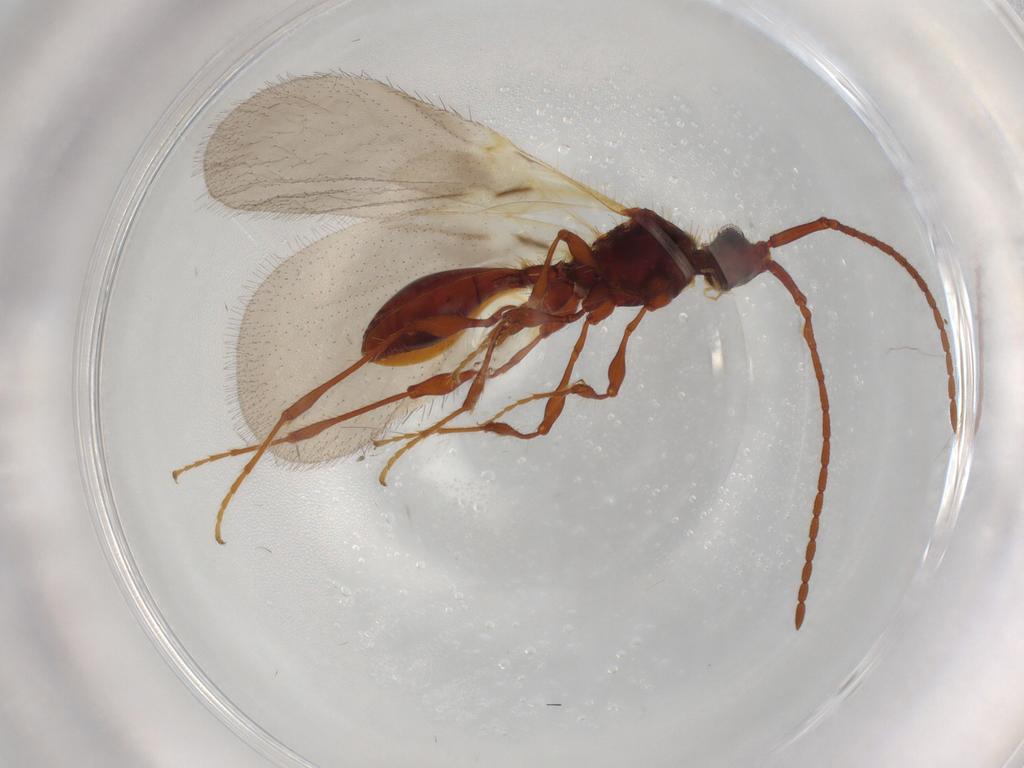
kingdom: Animalia
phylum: Arthropoda
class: Insecta
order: Hymenoptera
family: Diapriidae
